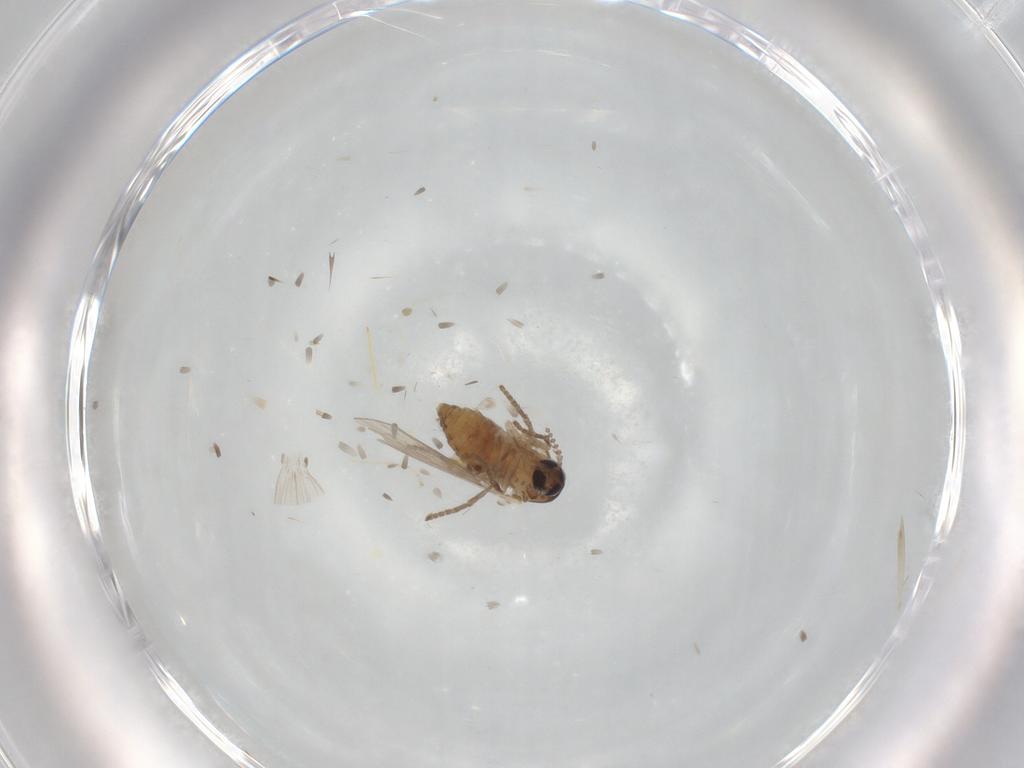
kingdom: Animalia
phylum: Arthropoda
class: Insecta
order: Diptera
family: Psychodidae
